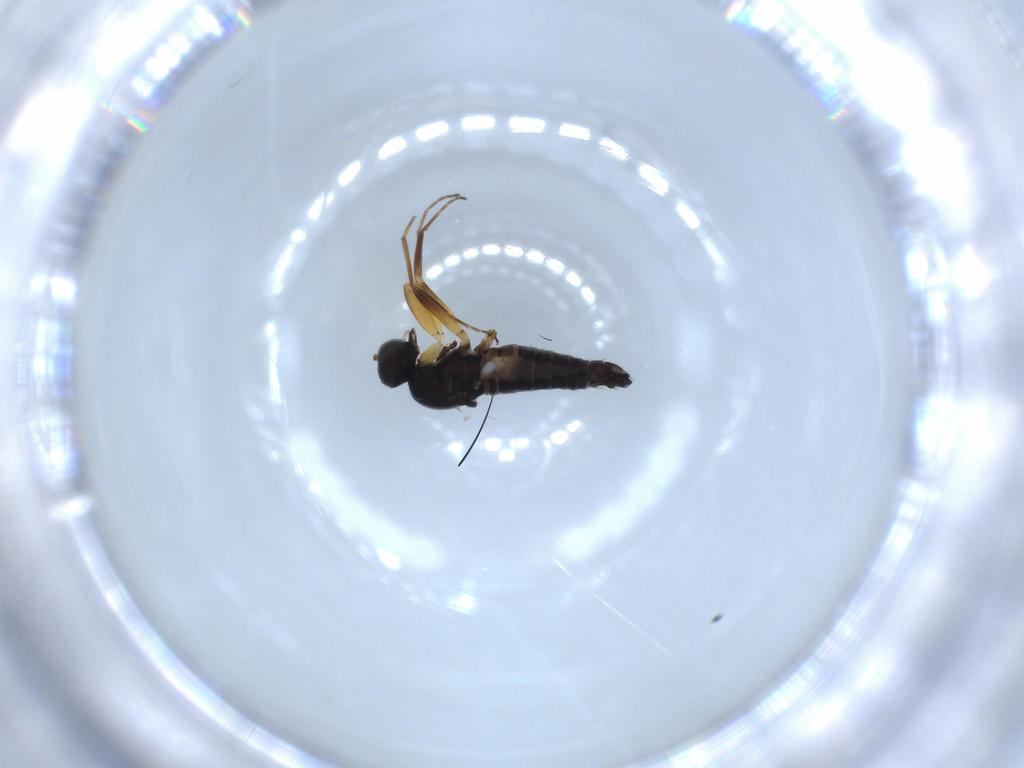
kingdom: Animalia
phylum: Arthropoda
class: Insecta
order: Diptera
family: Hybotidae
